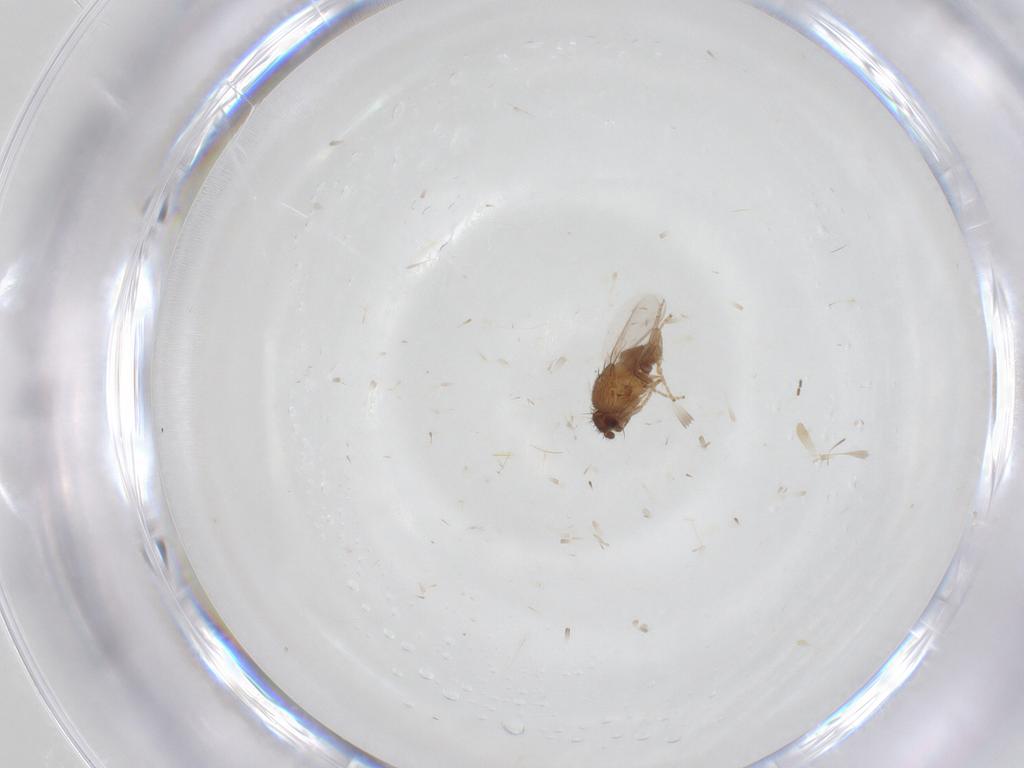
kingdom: Animalia
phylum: Arthropoda
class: Insecta
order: Diptera
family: Sphaeroceridae
